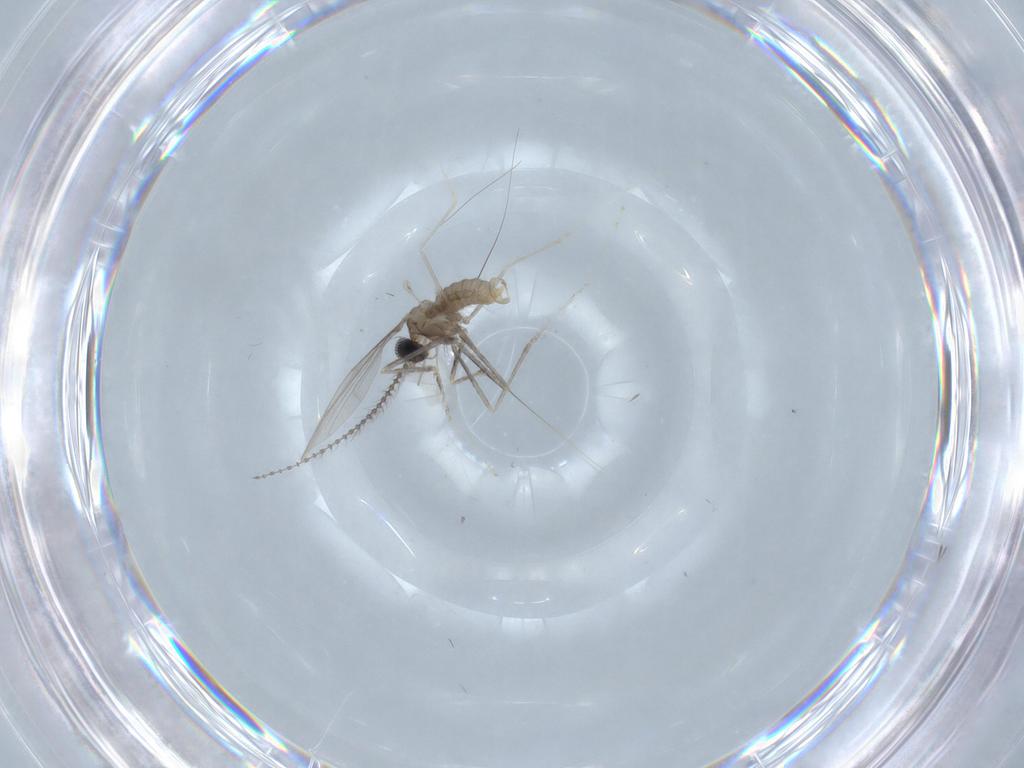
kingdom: Animalia
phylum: Arthropoda
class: Insecta
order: Diptera
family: Cecidomyiidae
